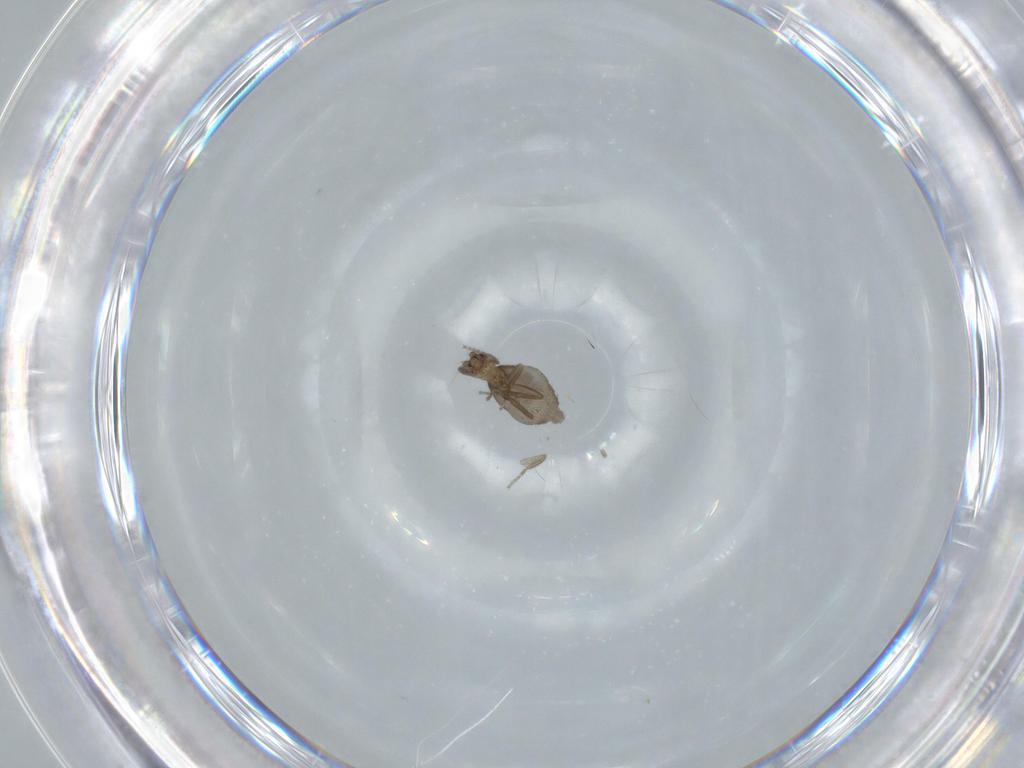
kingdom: Animalia
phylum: Arthropoda
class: Insecta
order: Diptera
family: Phoridae
